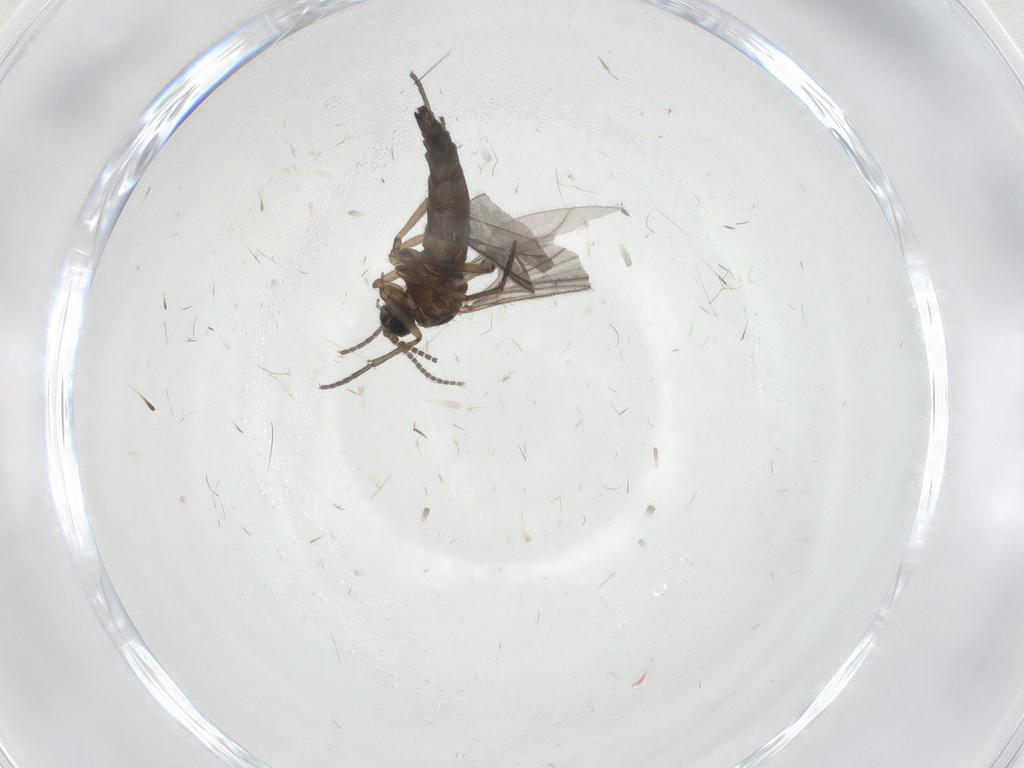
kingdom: Animalia
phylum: Arthropoda
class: Insecta
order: Diptera
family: Sciaridae
